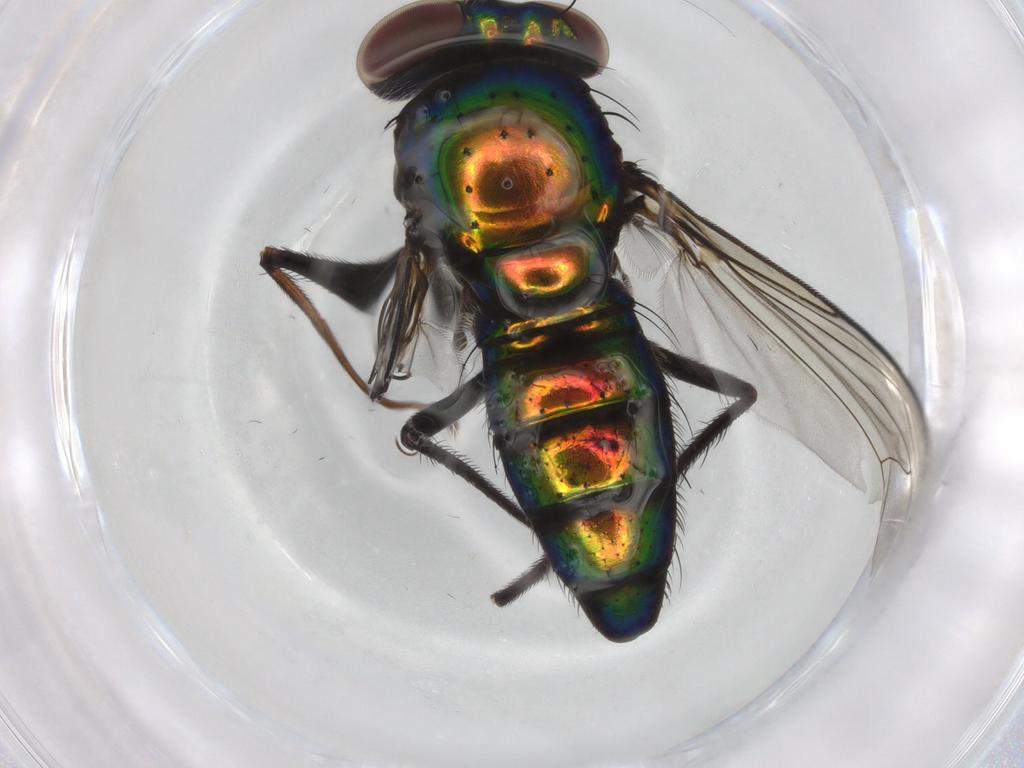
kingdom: Animalia
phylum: Arthropoda
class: Insecta
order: Diptera
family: Dolichopodidae
